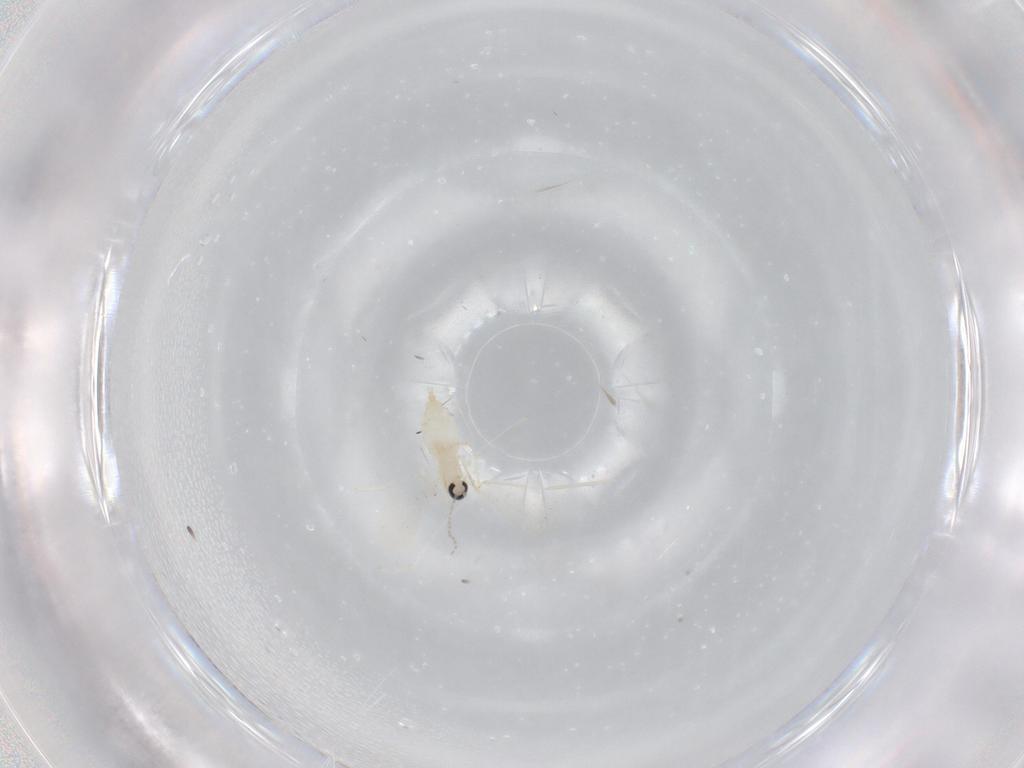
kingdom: Animalia
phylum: Arthropoda
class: Insecta
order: Diptera
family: Cecidomyiidae
